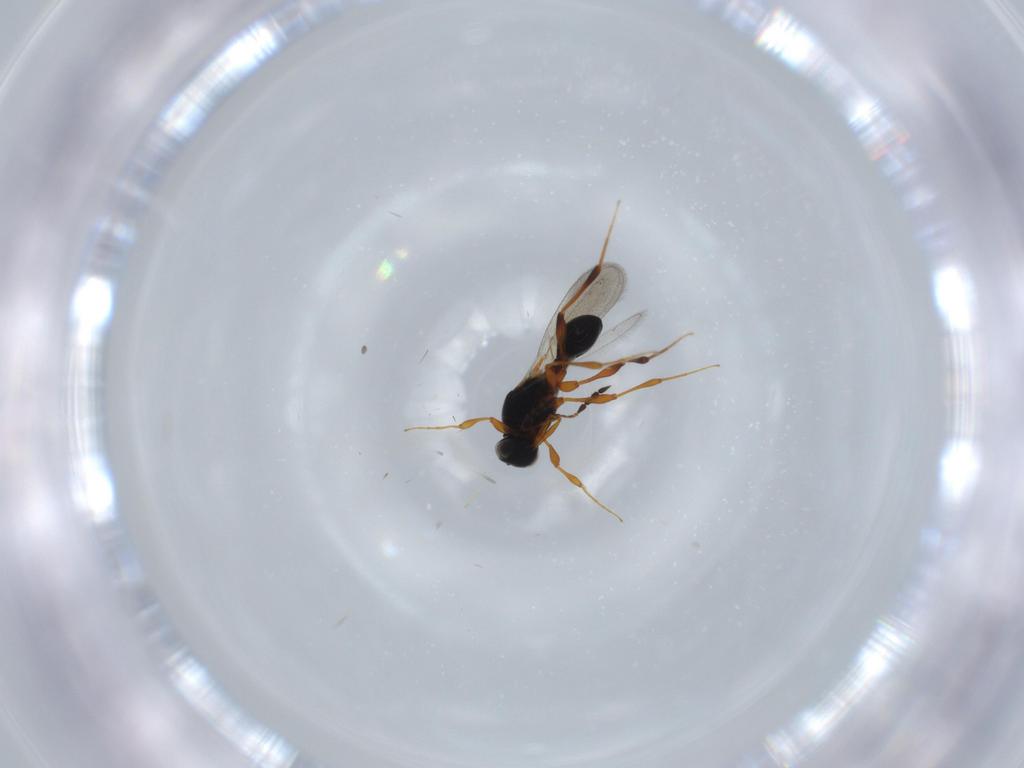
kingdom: Animalia
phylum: Arthropoda
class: Insecta
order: Hymenoptera
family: Platygastridae
